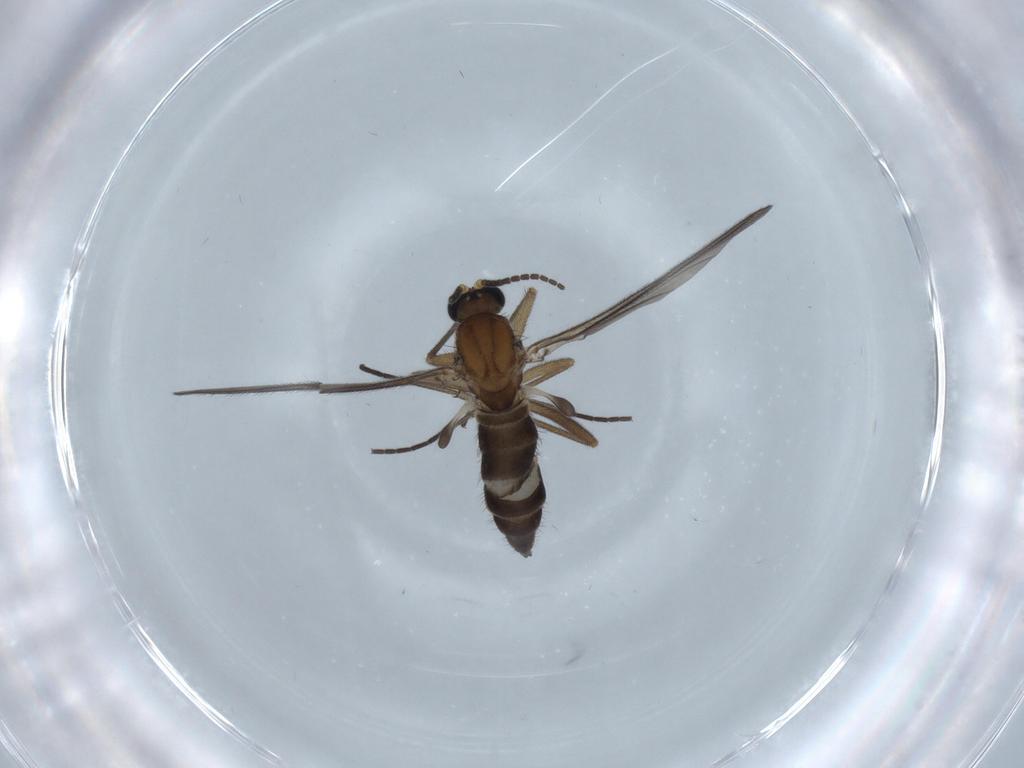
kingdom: Animalia
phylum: Arthropoda
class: Insecta
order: Diptera
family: Sciaridae
